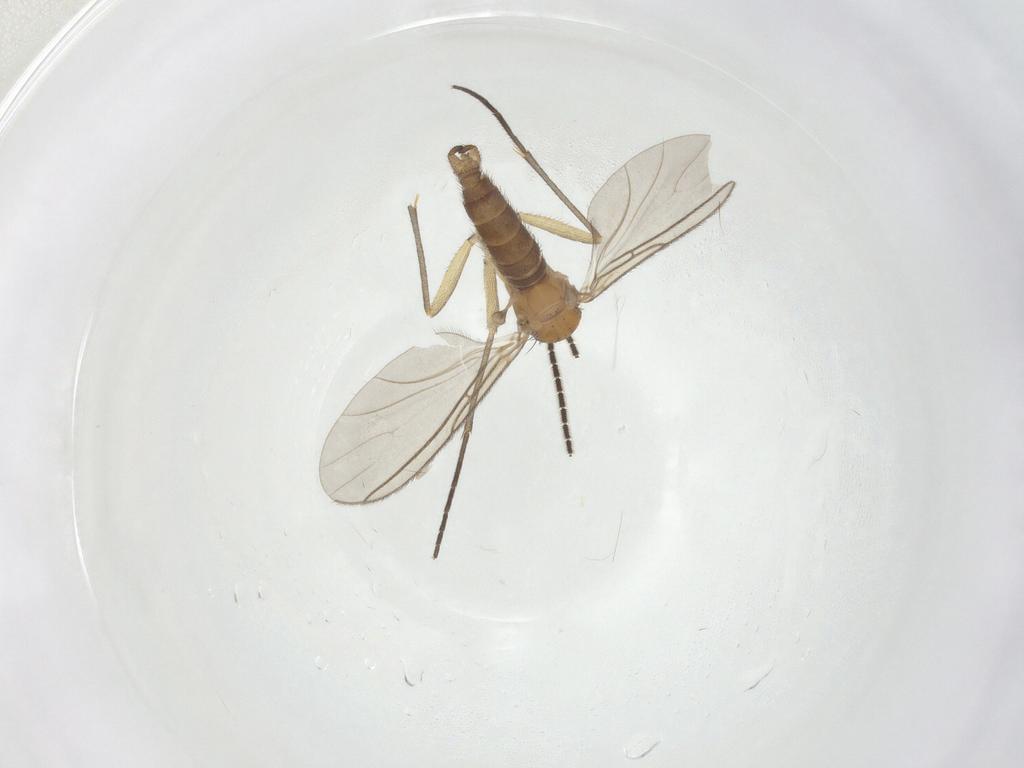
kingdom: Animalia
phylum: Arthropoda
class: Insecta
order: Diptera
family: Sciaridae
